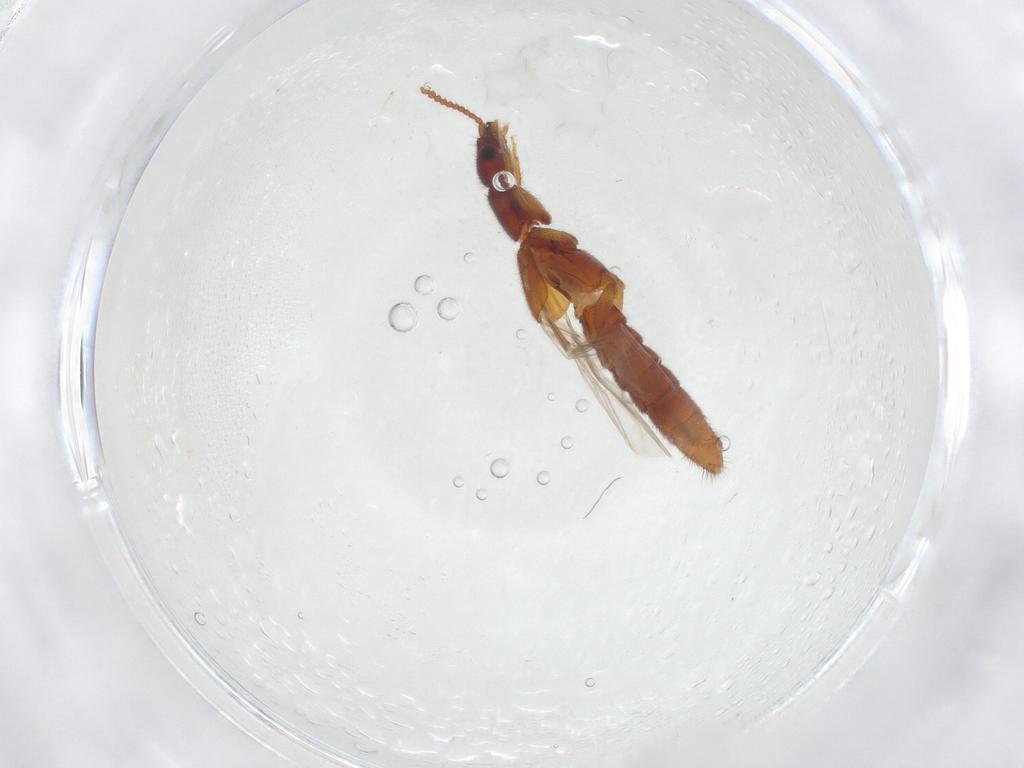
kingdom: Animalia
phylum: Arthropoda
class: Insecta
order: Coleoptera
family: Staphylinidae
